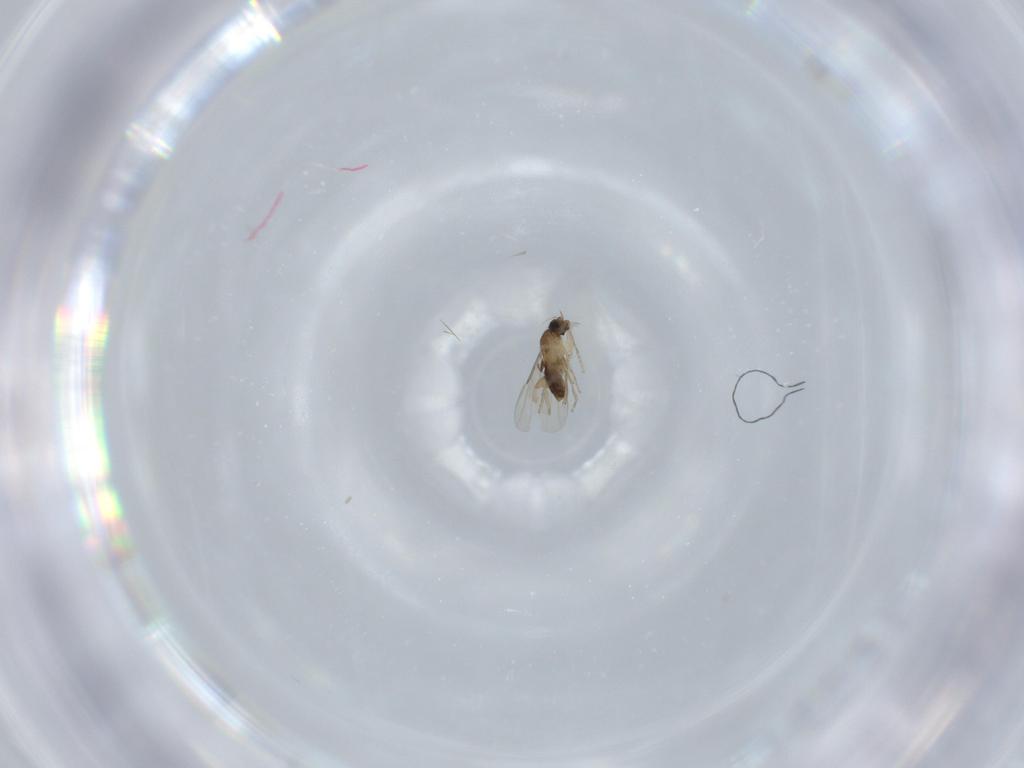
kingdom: Animalia
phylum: Arthropoda
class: Insecta
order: Diptera
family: Phoridae
